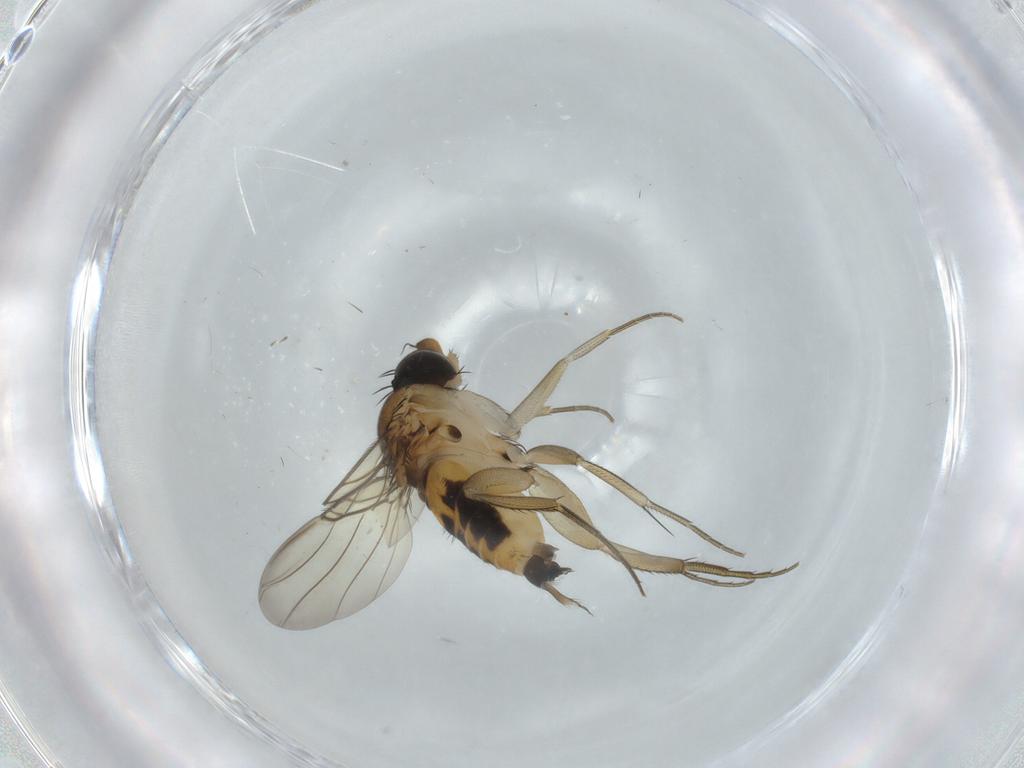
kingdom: Animalia
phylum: Arthropoda
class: Insecta
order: Diptera
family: Phoridae
